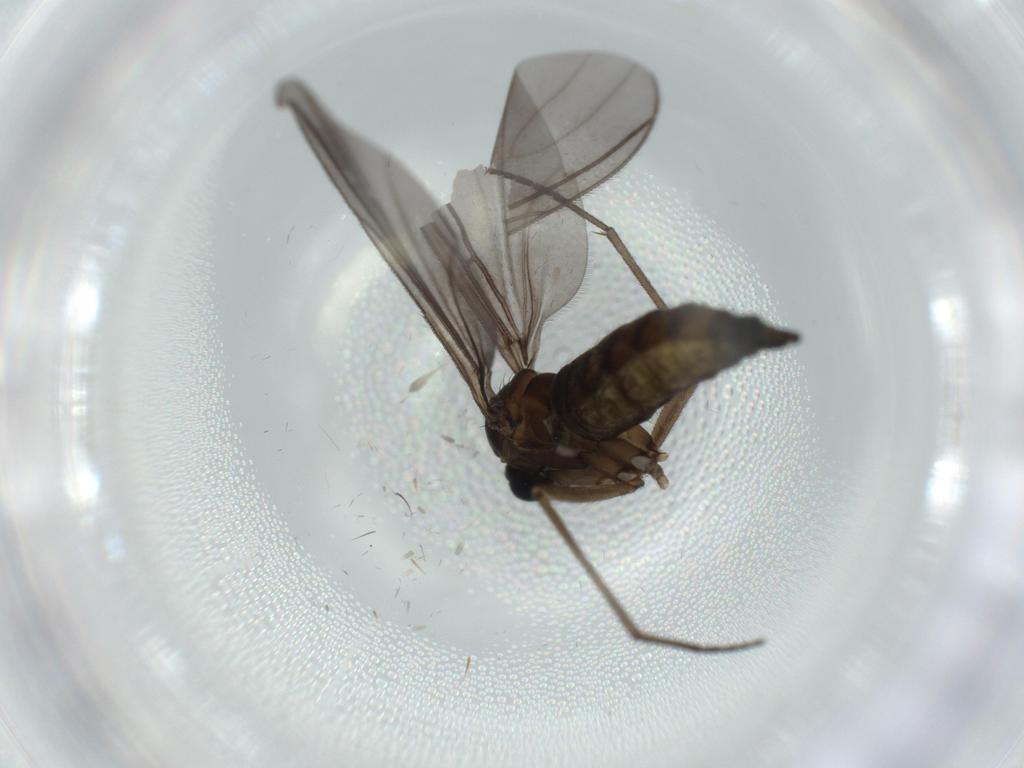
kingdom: Animalia
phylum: Arthropoda
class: Insecta
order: Diptera
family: Sciaridae
